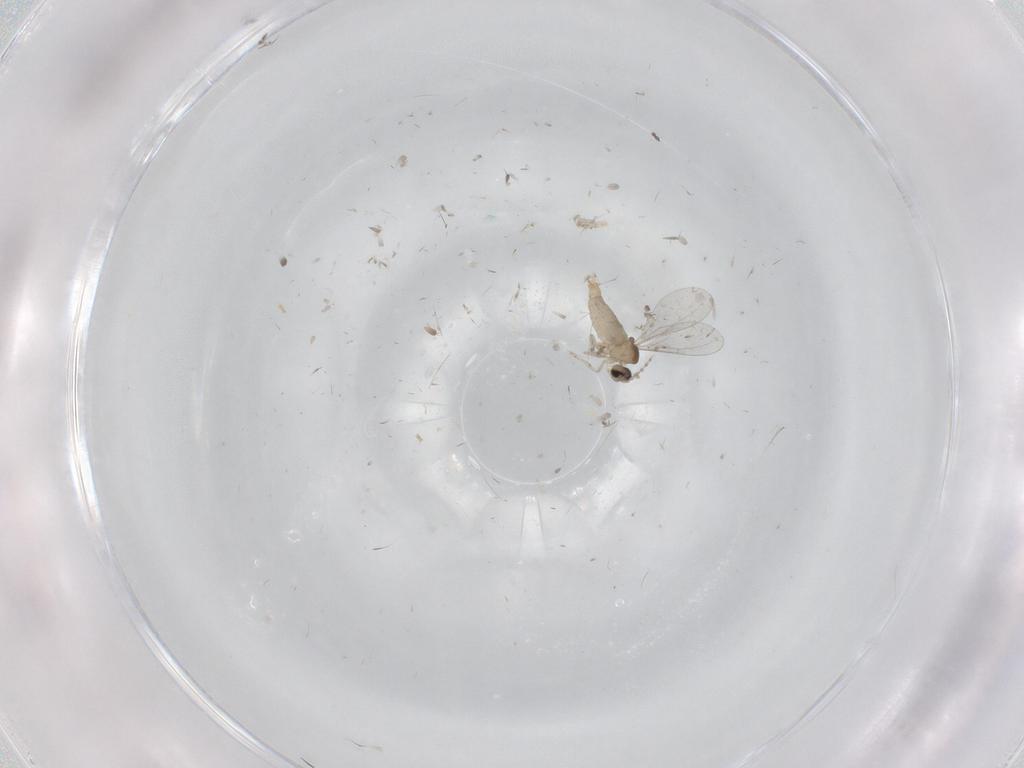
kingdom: Animalia
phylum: Arthropoda
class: Insecta
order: Diptera
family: Cecidomyiidae
